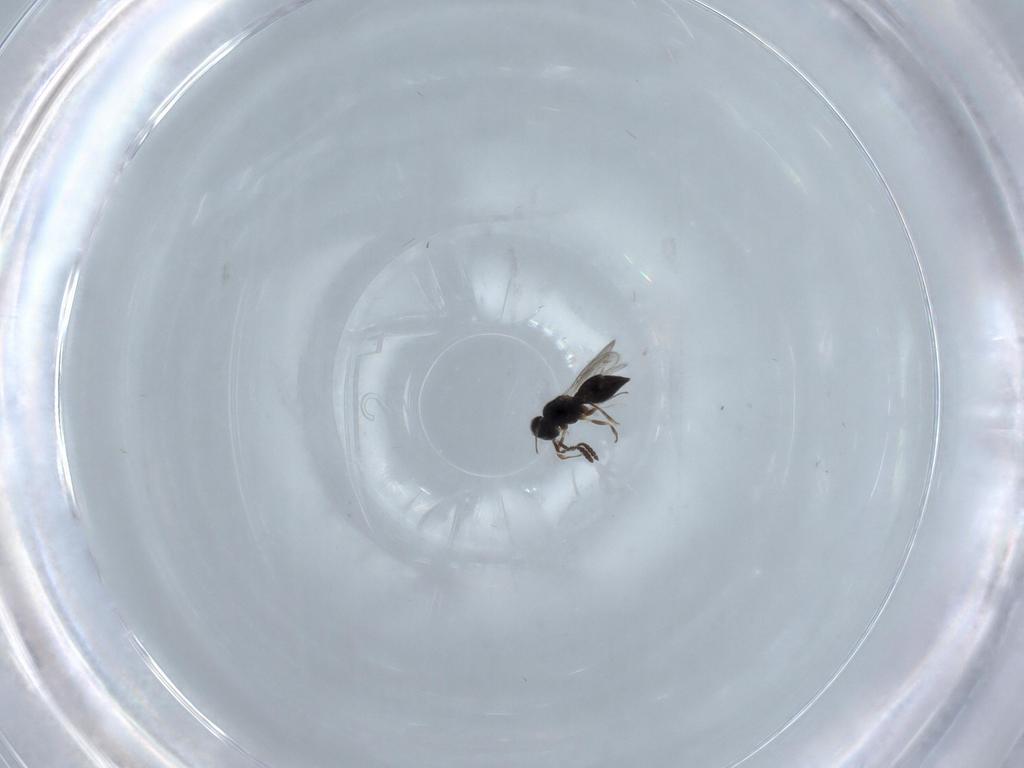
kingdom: Animalia
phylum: Arthropoda
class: Insecta
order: Hymenoptera
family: Scelionidae
